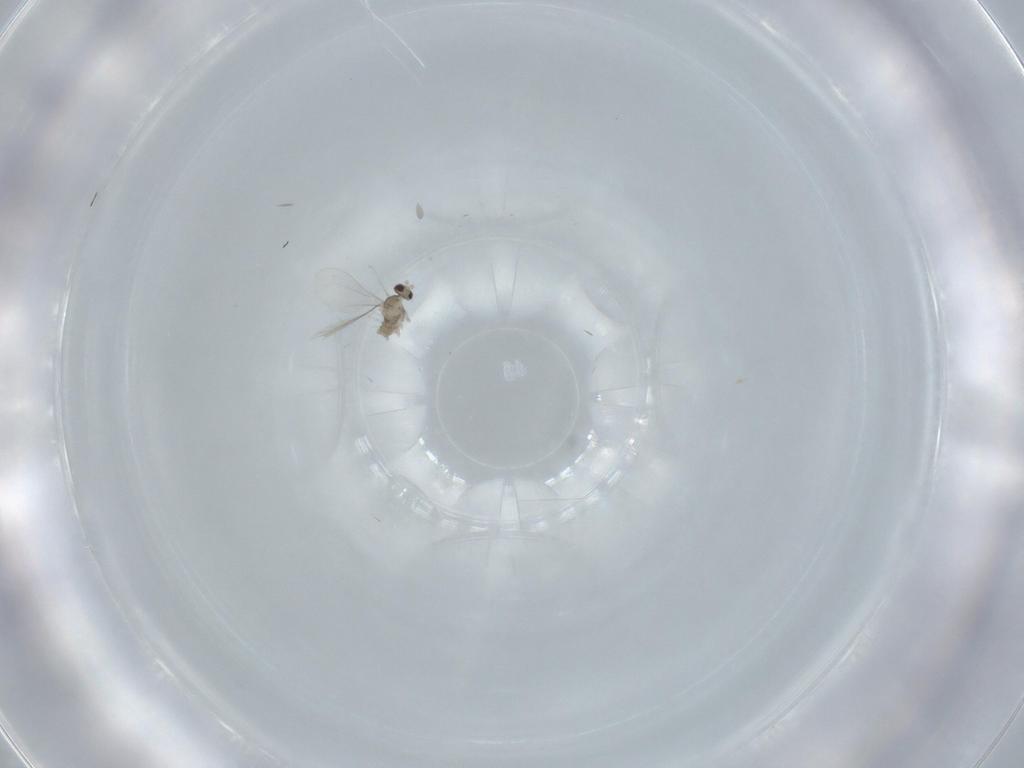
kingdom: Animalia
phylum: Arthropoda
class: Insecta
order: Diptera
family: Cecidomyiidae
